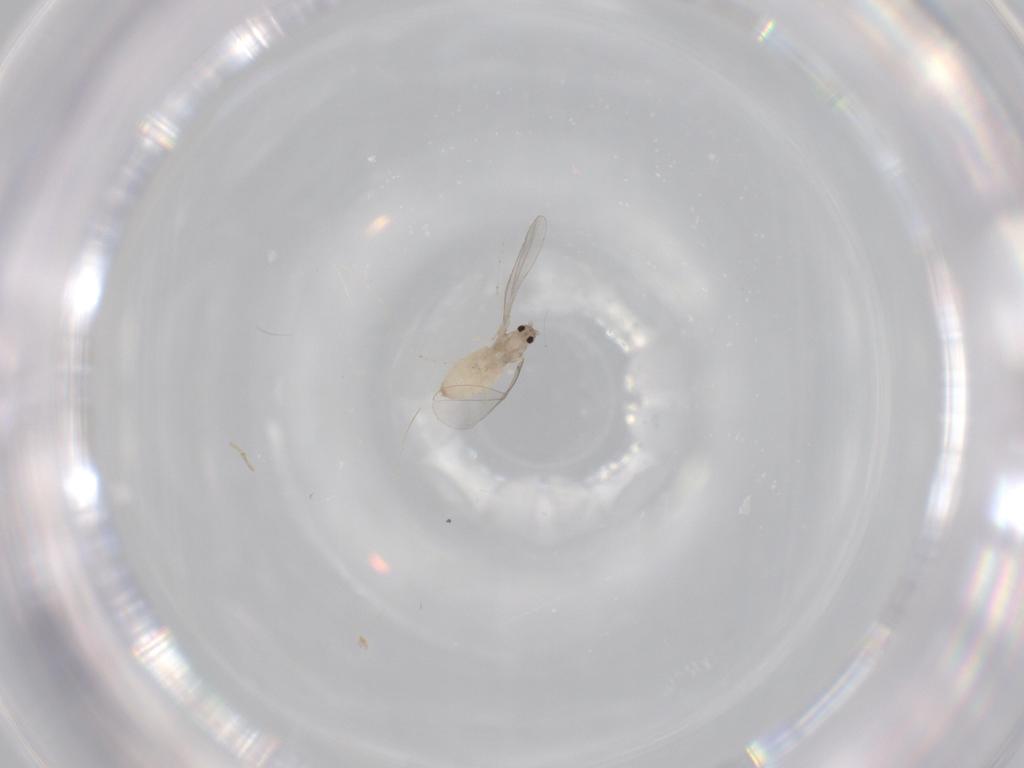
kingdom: Animalia
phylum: Arthropoda
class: Insecta
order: Diptera
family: Cecidomyiidae
